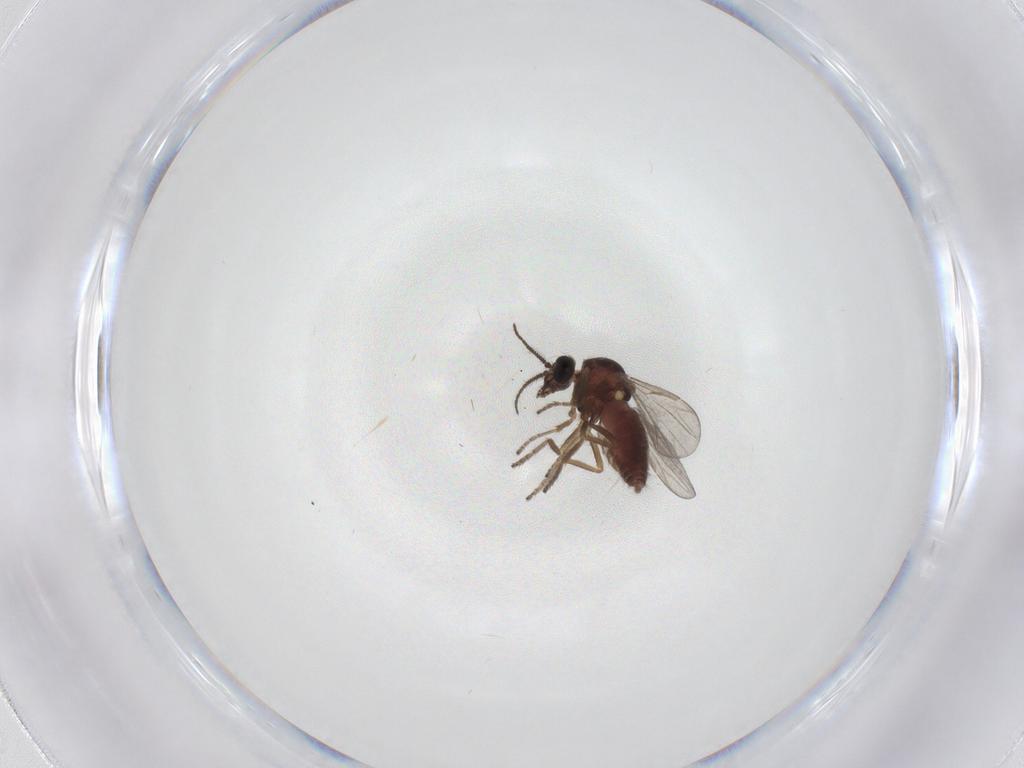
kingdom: Animalia
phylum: Arthropoda
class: Insecta
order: Diptera
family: Ceratopogonidae
